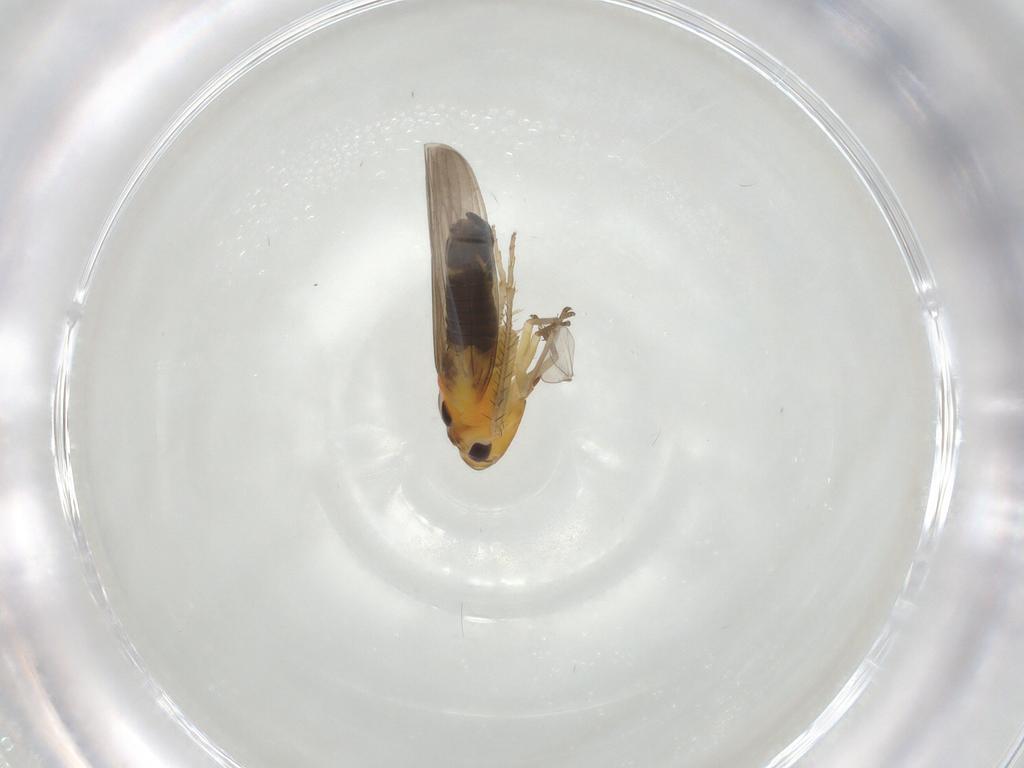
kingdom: Animalia
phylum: Arthropoda
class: Insecta
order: Hemiptera
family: Cicadellidae
